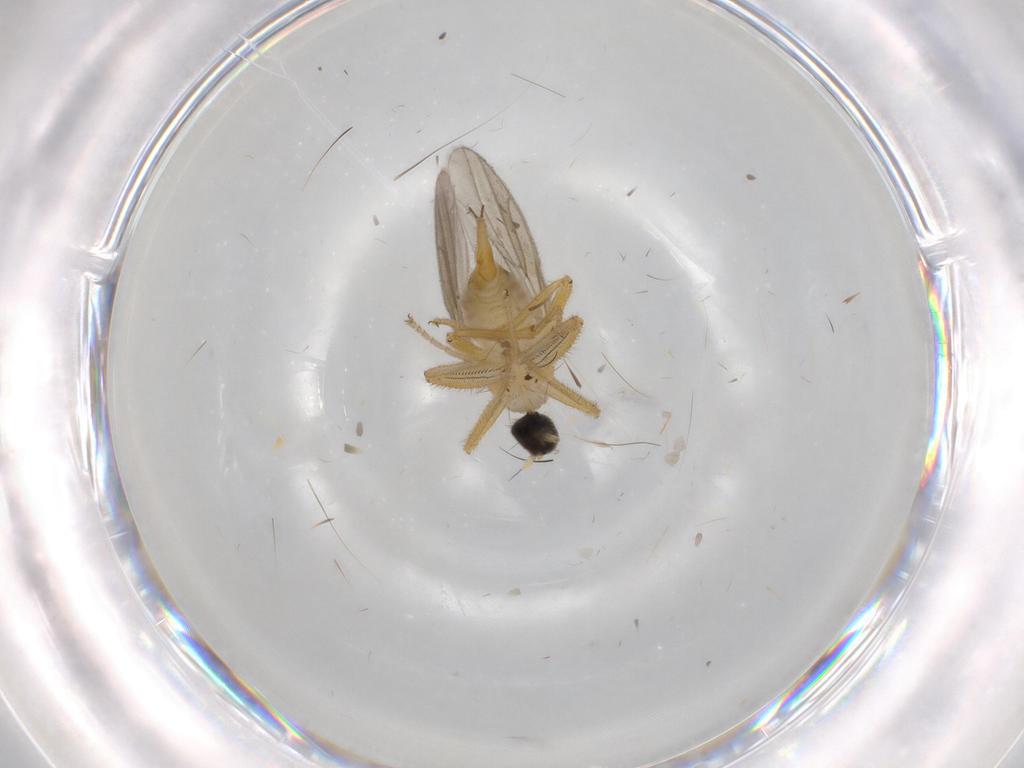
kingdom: Animalia
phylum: Arthropoda
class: Insecta
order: Diptera
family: Hybotidae
